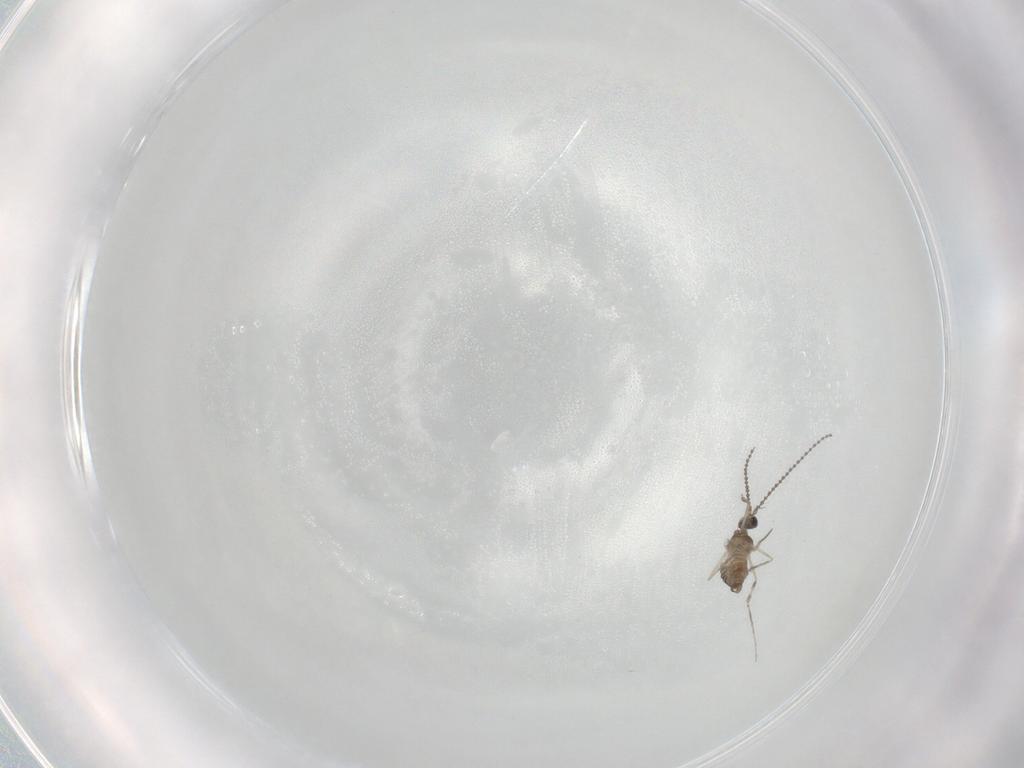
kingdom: Animalia
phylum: Arthropoda
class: Insecta
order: Diptera
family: Cecidomyiidae
